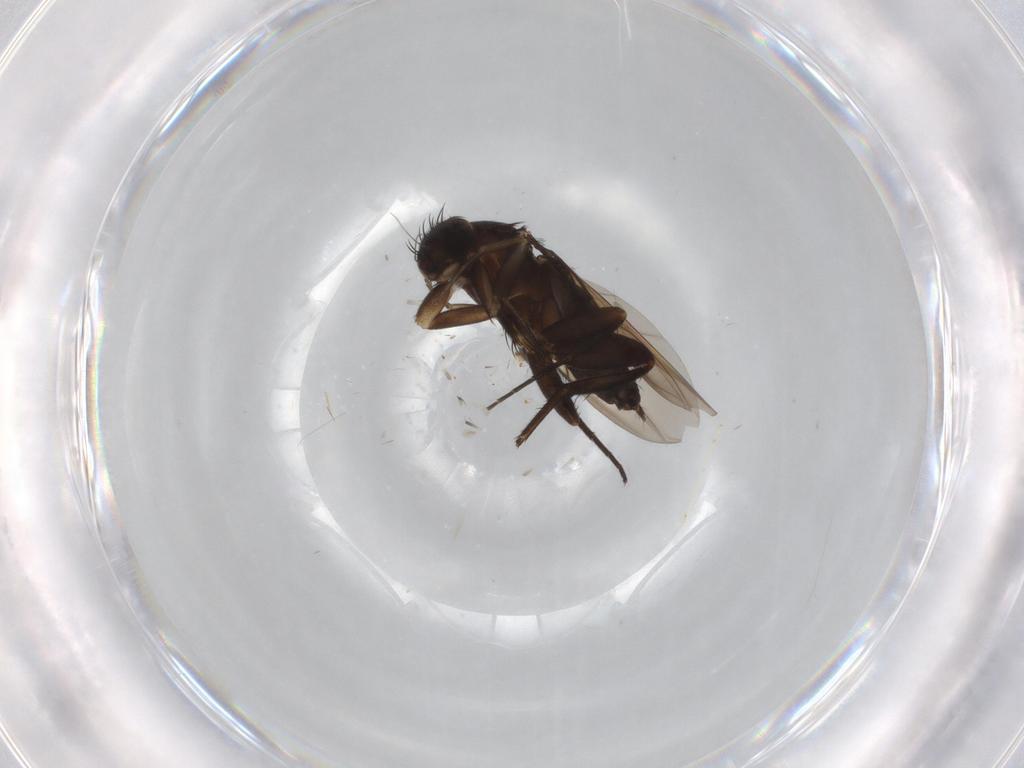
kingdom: Animalia
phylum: Arthropoda
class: Insecta
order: Diptera
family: Phoridae
